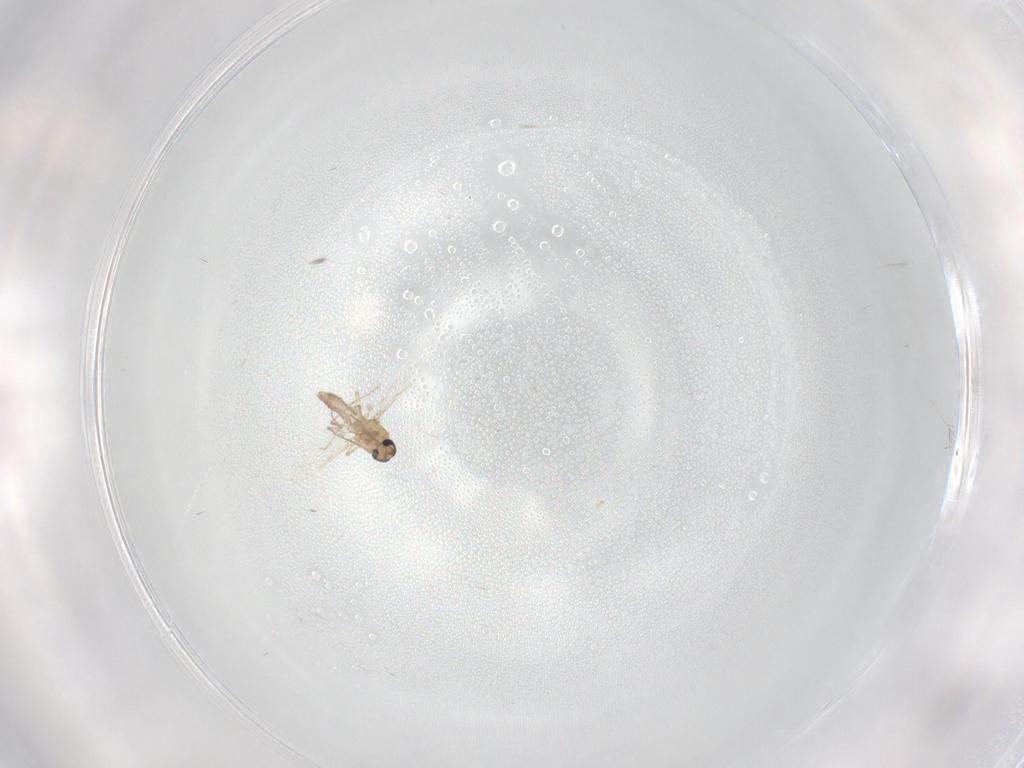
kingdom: Animalia
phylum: Arthropoda
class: Insecta
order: Diptera
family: Ceratopogonidae
